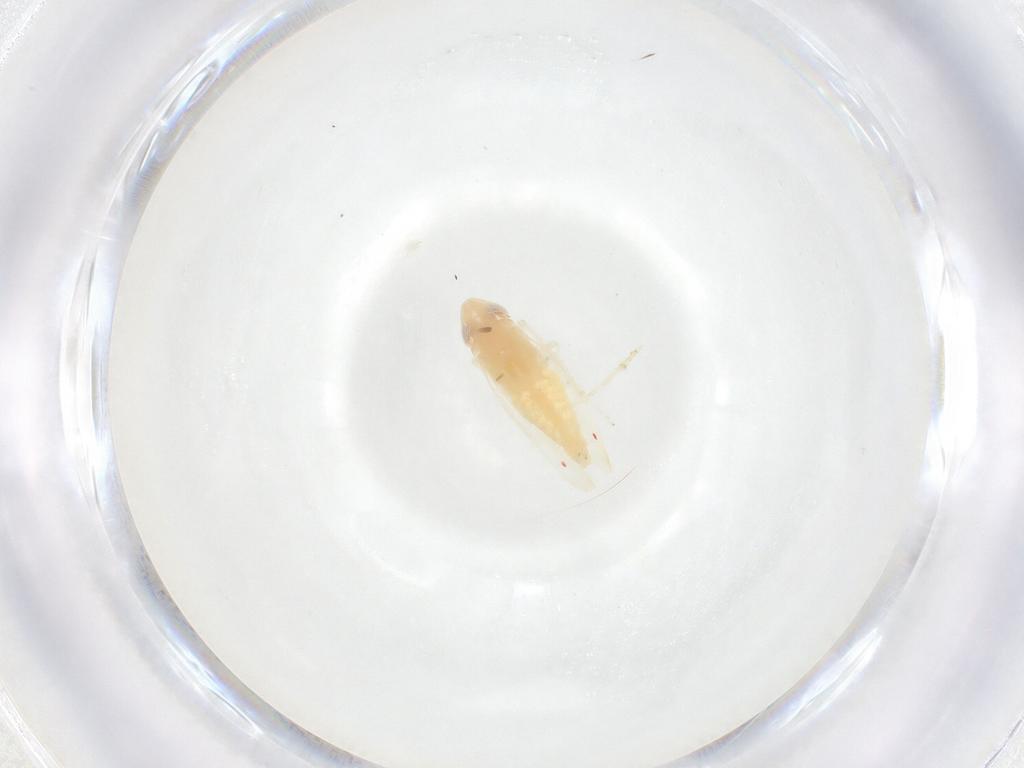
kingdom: Animalia
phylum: Arthropoda
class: Insecta
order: Hemiptera
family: Cicadellidae
